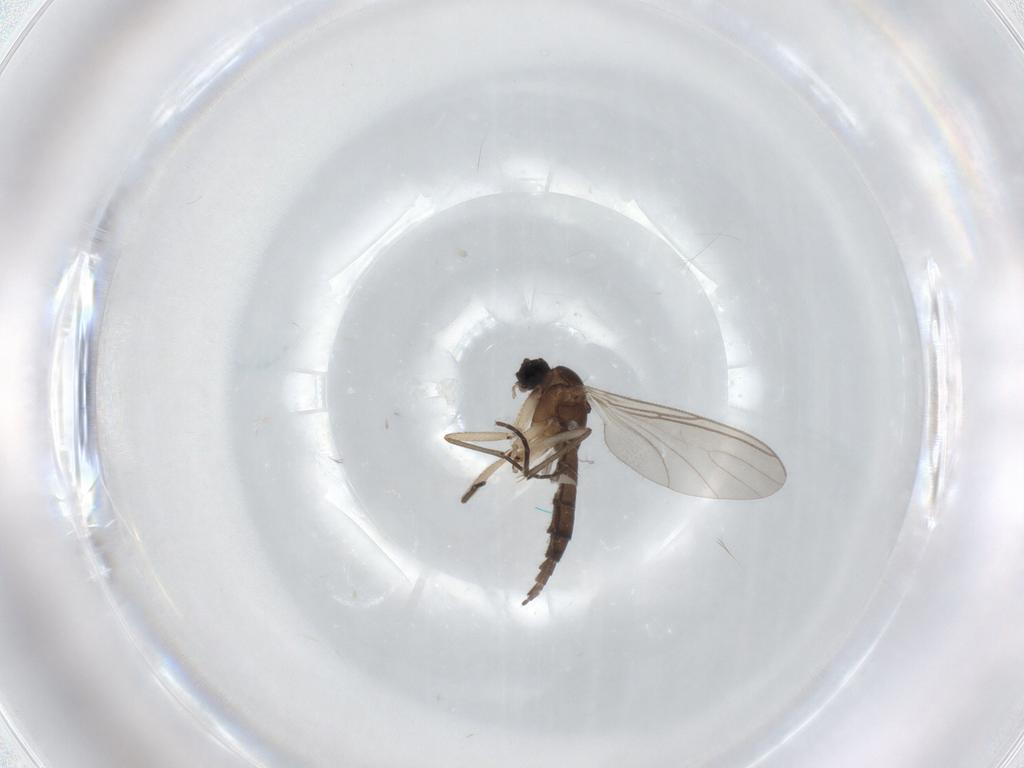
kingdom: Animalia
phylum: Arthropoda
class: Insecta
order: Diptera
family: Sciaridae
